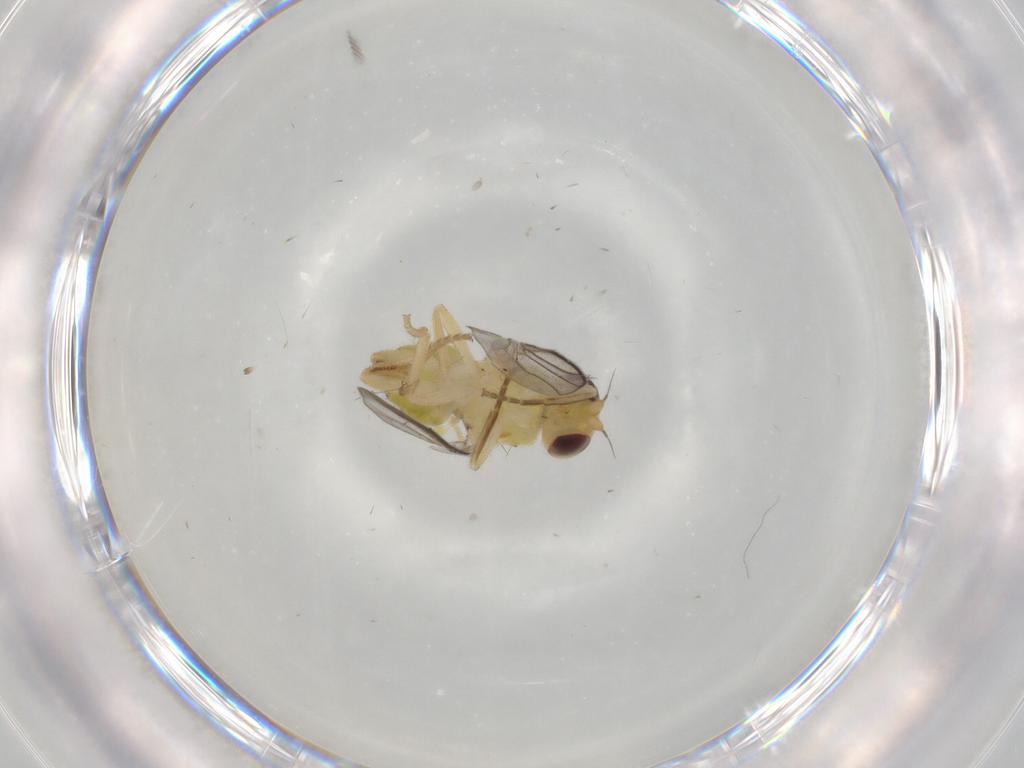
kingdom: Animalia
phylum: Arthropoda
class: Insecta
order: Diptera
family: Chloropidae
